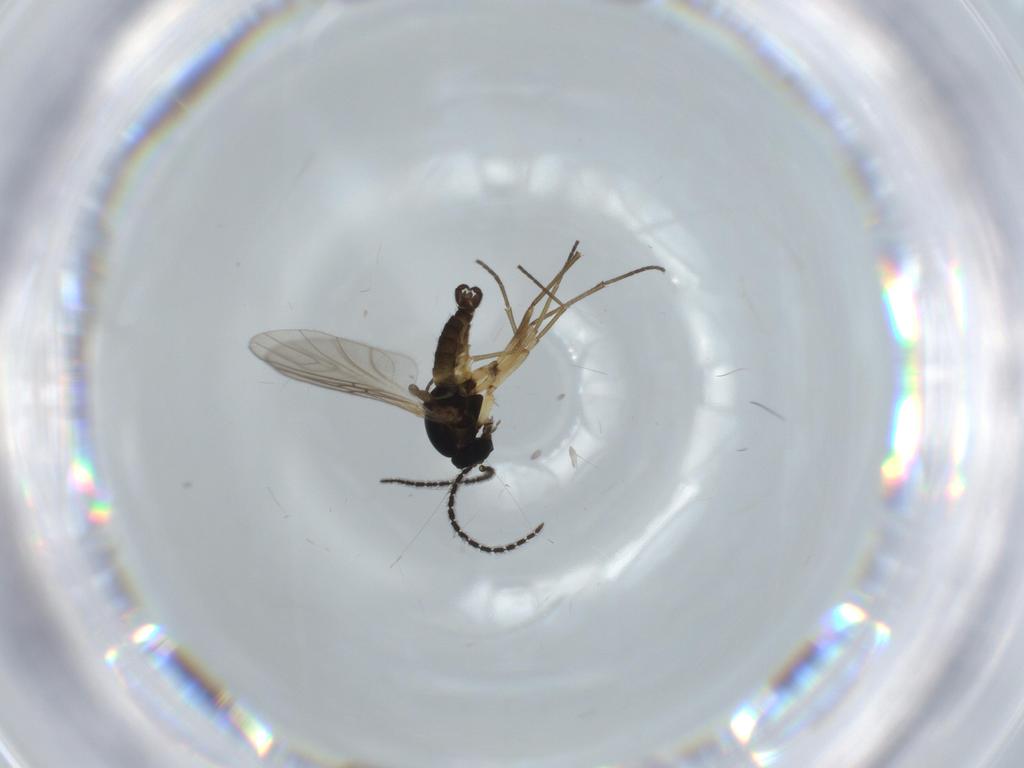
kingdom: Animalia
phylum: Arthropoda
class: Insecta
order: Diptera
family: Sciaridae
